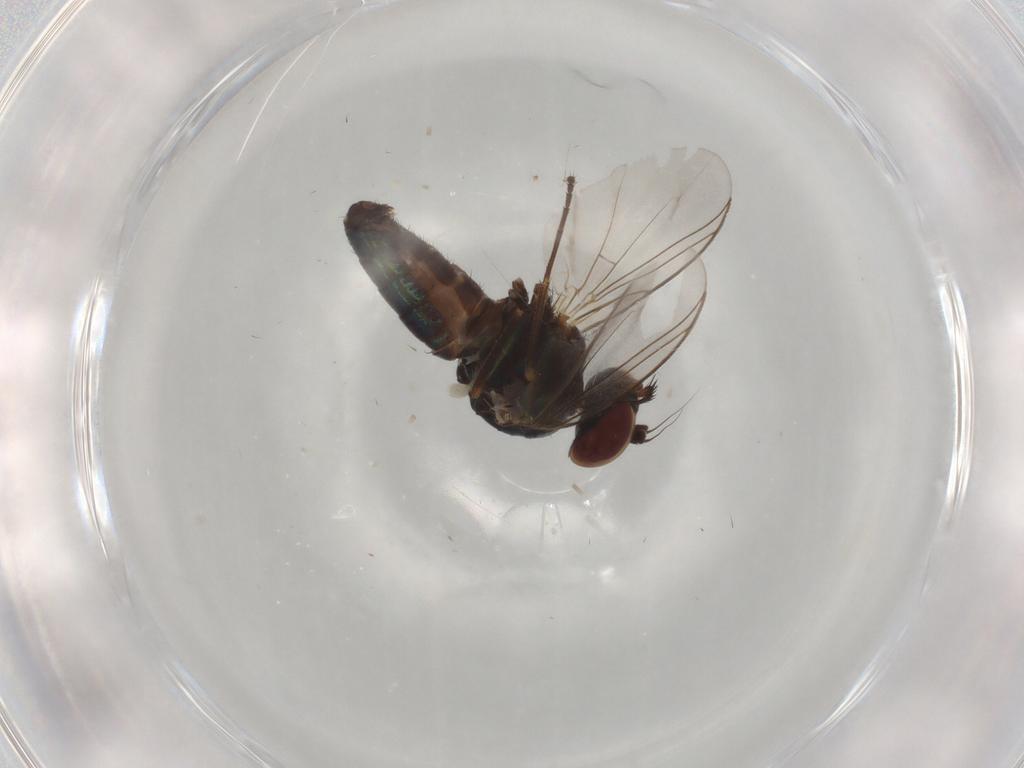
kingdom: Animalia
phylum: Arthropoda
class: Insecta
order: Diptera
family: Dolichopodidae
